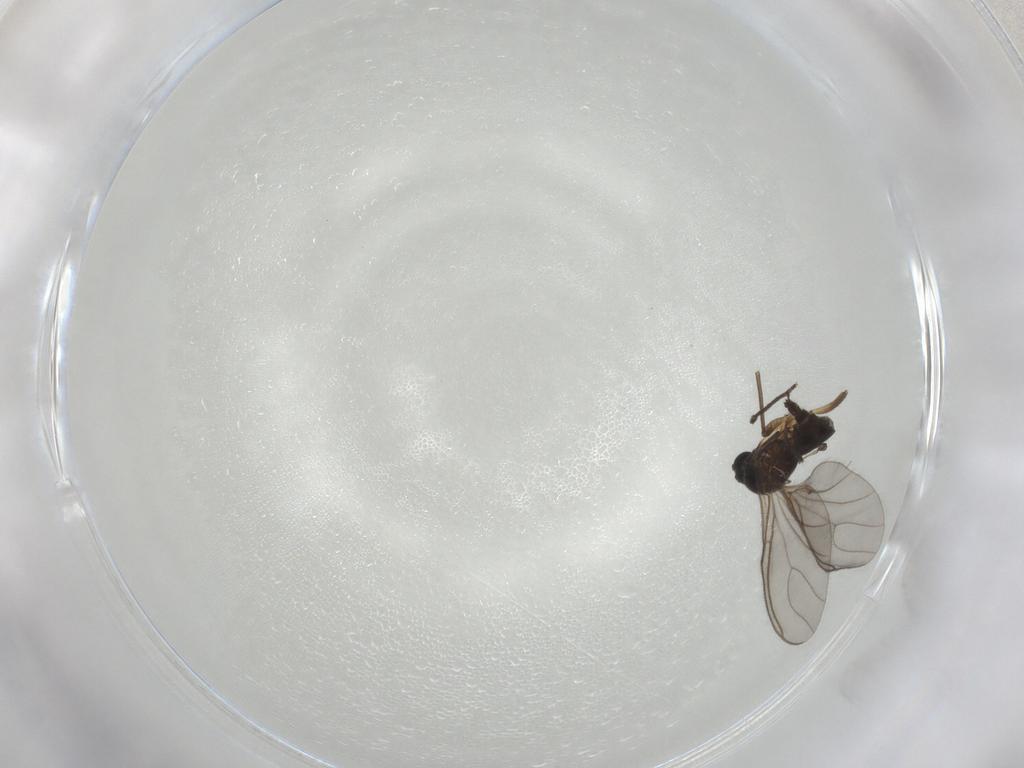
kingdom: Animalia
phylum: Arthropoda
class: Insecta
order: Diptera
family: Sciaridae
